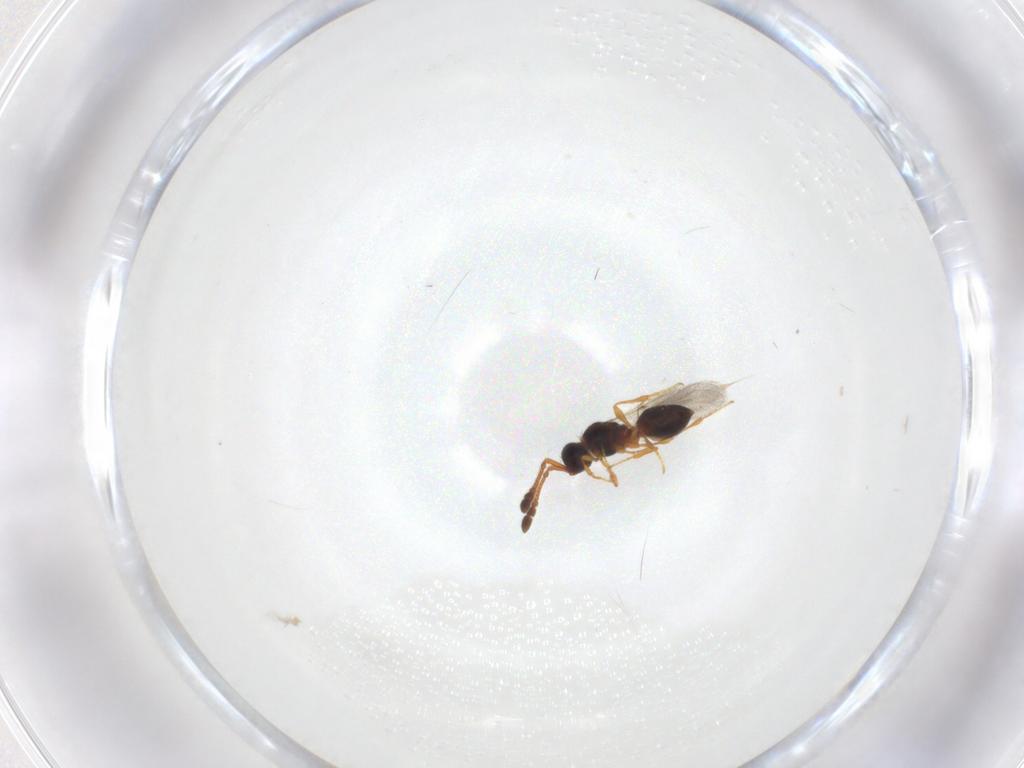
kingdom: Animalia
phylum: Arthropoda
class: Insecta
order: Hymenoptera
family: Diapriidae
